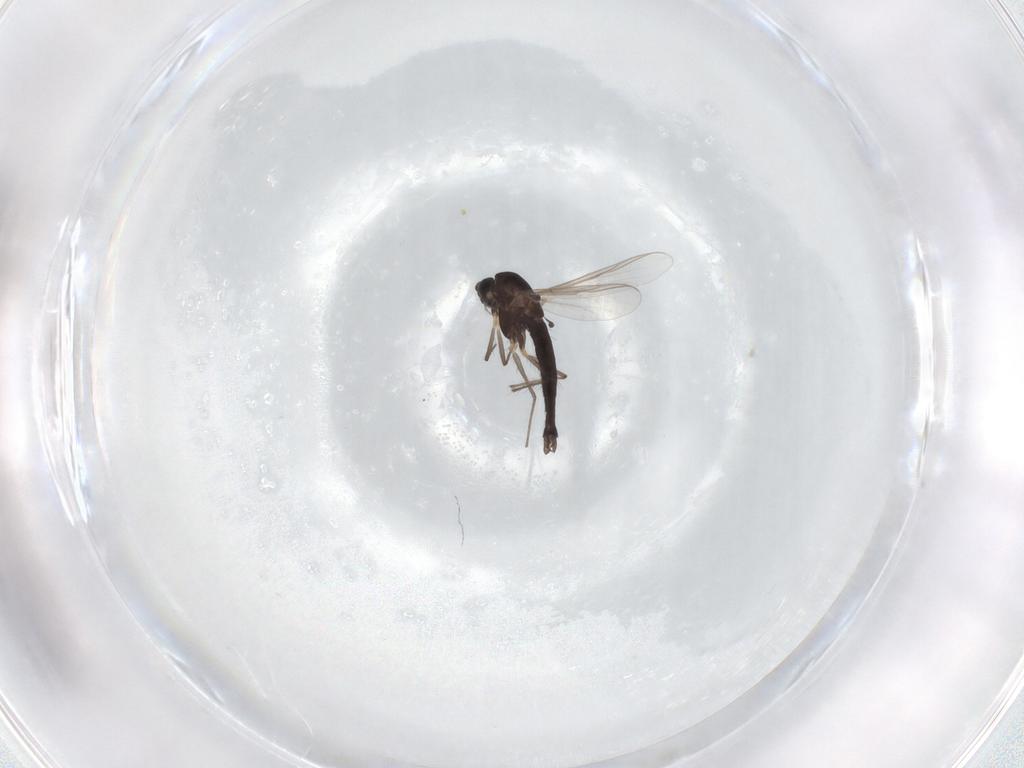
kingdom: Animalia
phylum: Arthropoda
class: Insecta
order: Diptera
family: Chironomidae
